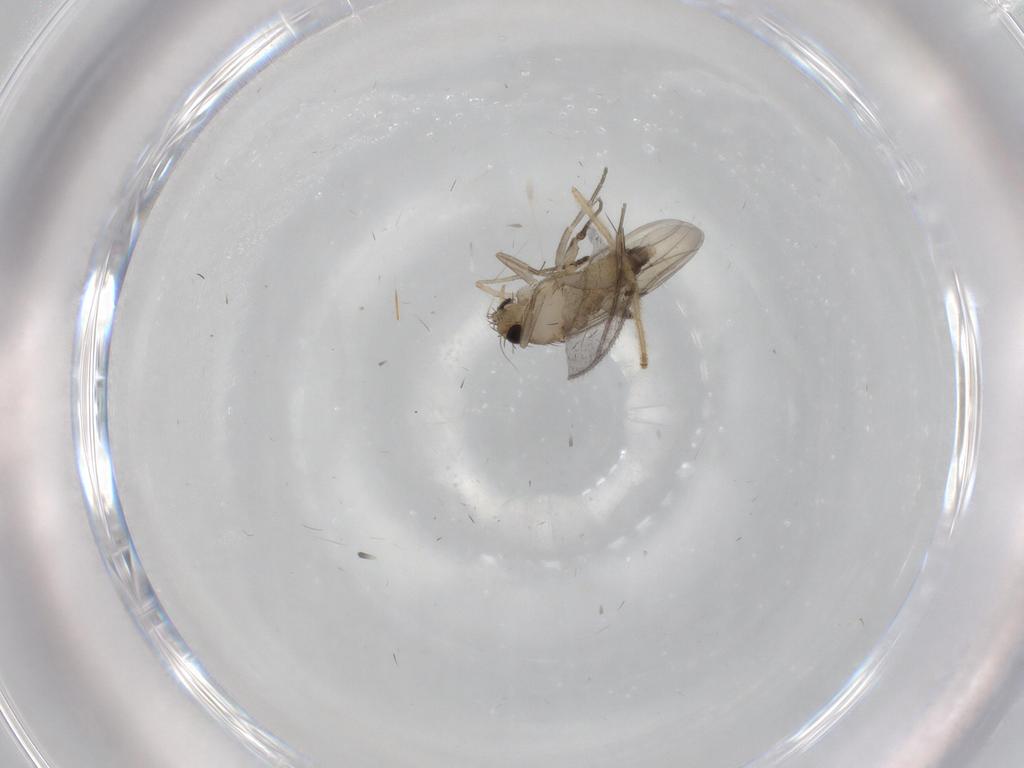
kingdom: Animalia
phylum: Arthropoda
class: Insecta
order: Diptera
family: Phoridae
